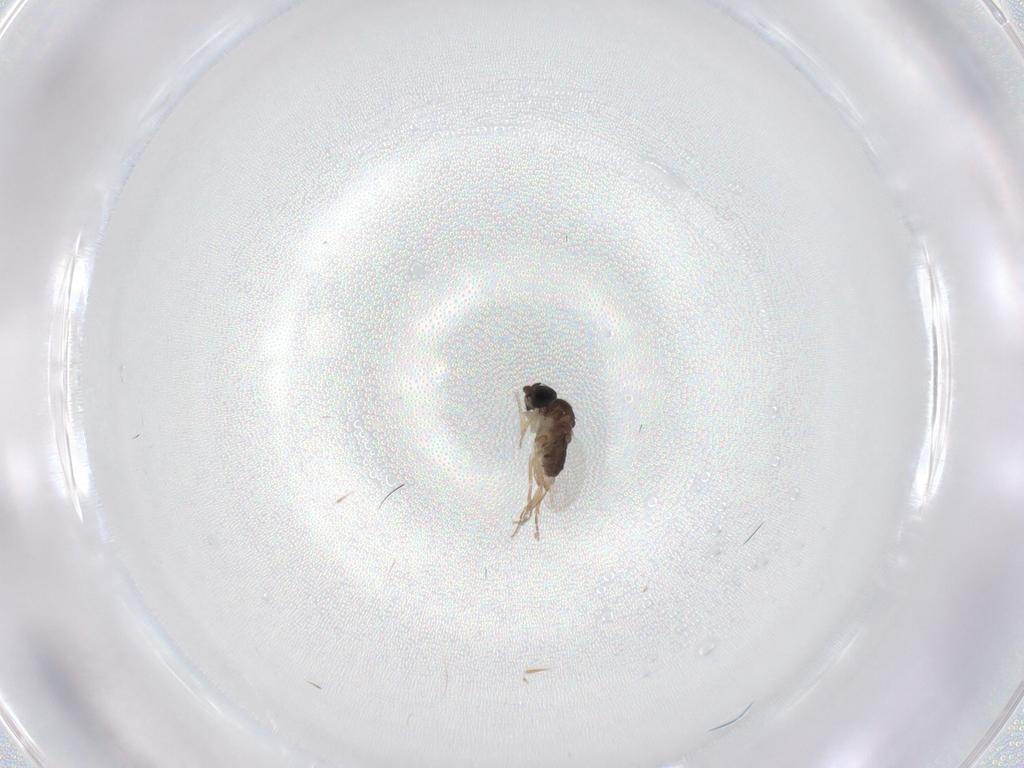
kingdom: Animalia
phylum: Arthropoda
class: Insecta
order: Diptera
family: Phoridae
